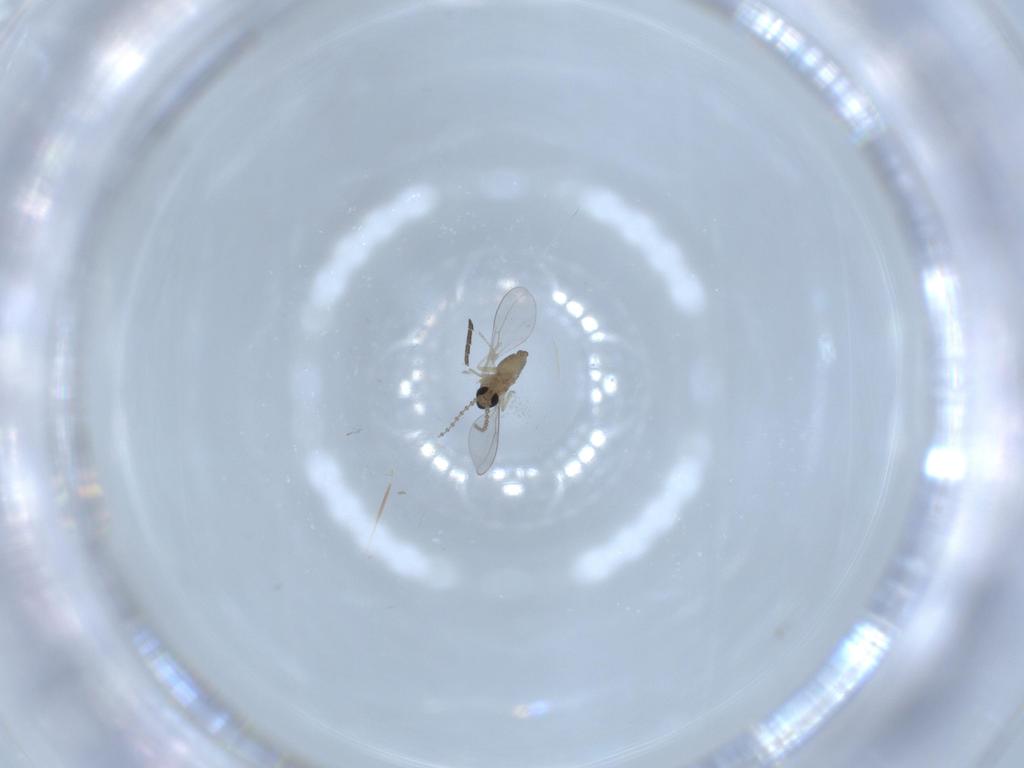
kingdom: Animalia
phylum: Arthropoda
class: Insecta
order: Diptera
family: Cecidomyiidae
